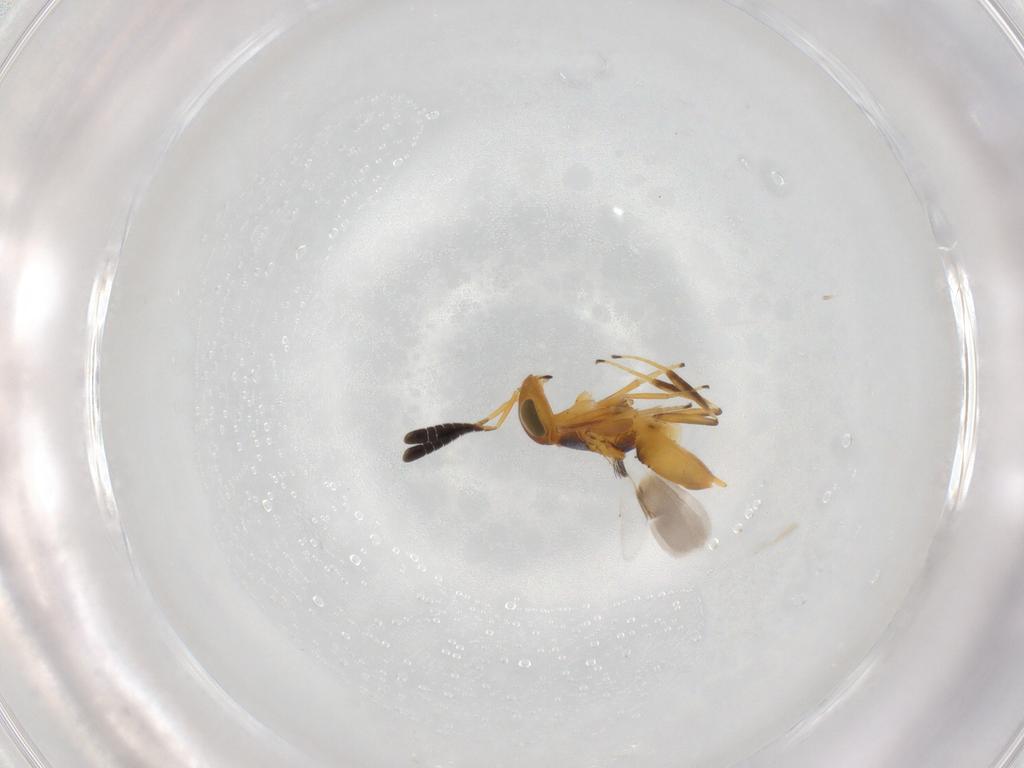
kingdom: Animalia
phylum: Arthropoda
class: Insecta
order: Hymenoptera
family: Encyrtidae
